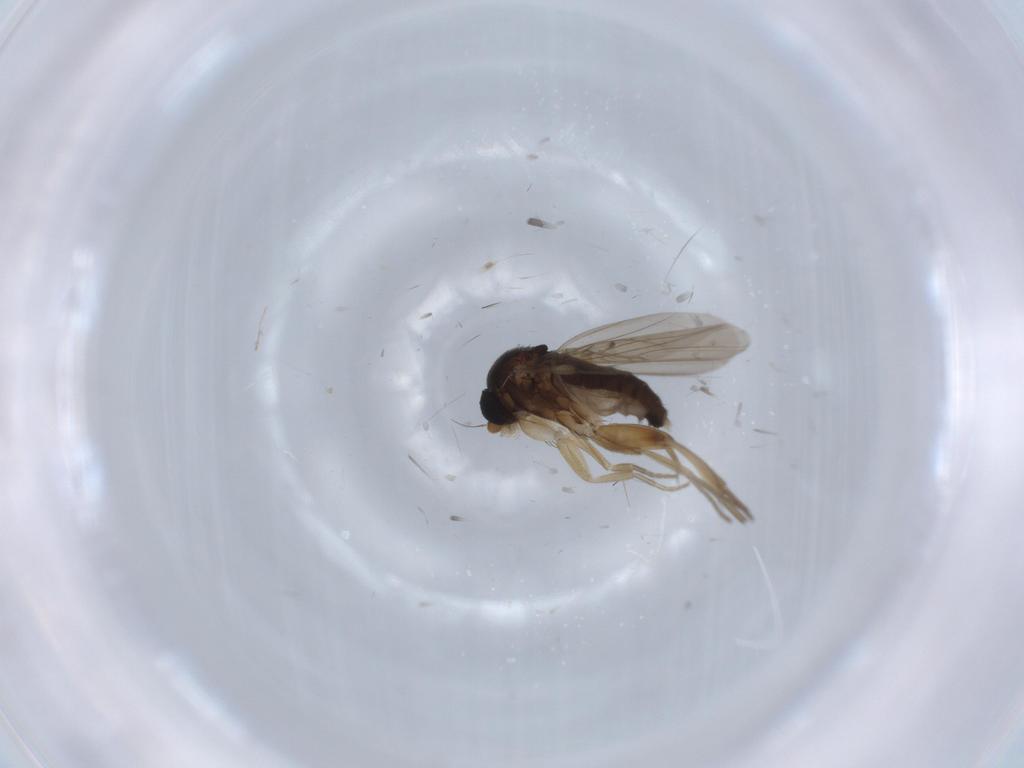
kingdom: Animalia
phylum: Arthropoda
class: Insecta
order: Diptera
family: Phoridae
